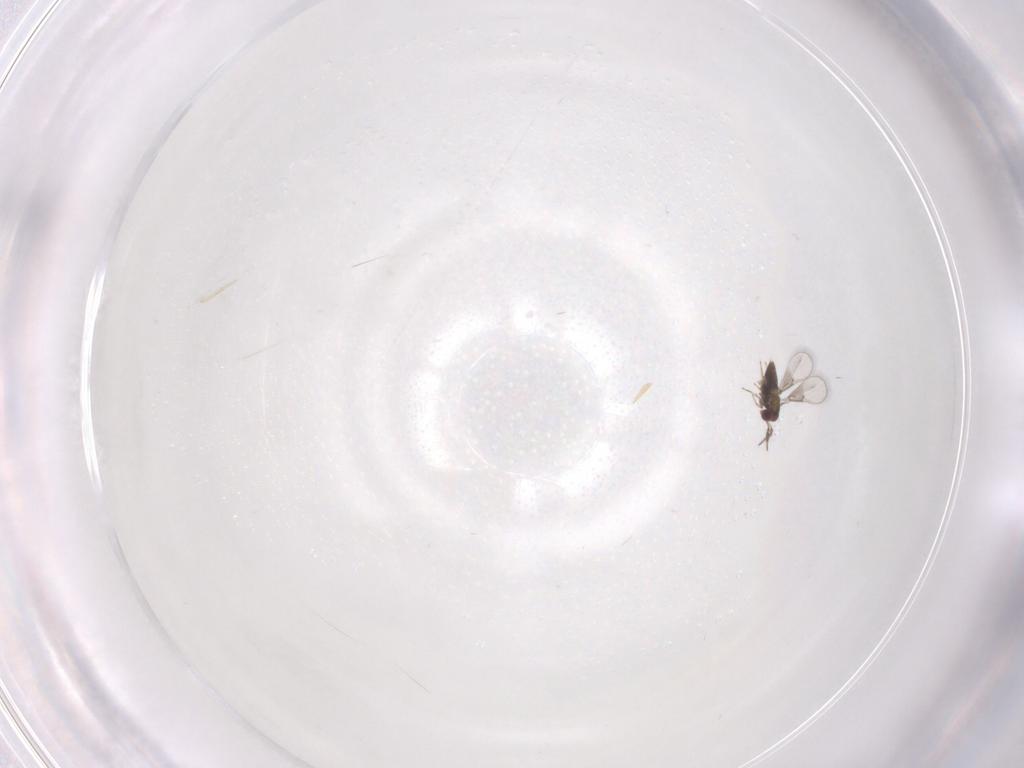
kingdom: Animalia
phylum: Arthropoda
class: Insecta
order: Hymenoptera
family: Trichogrammatidae
